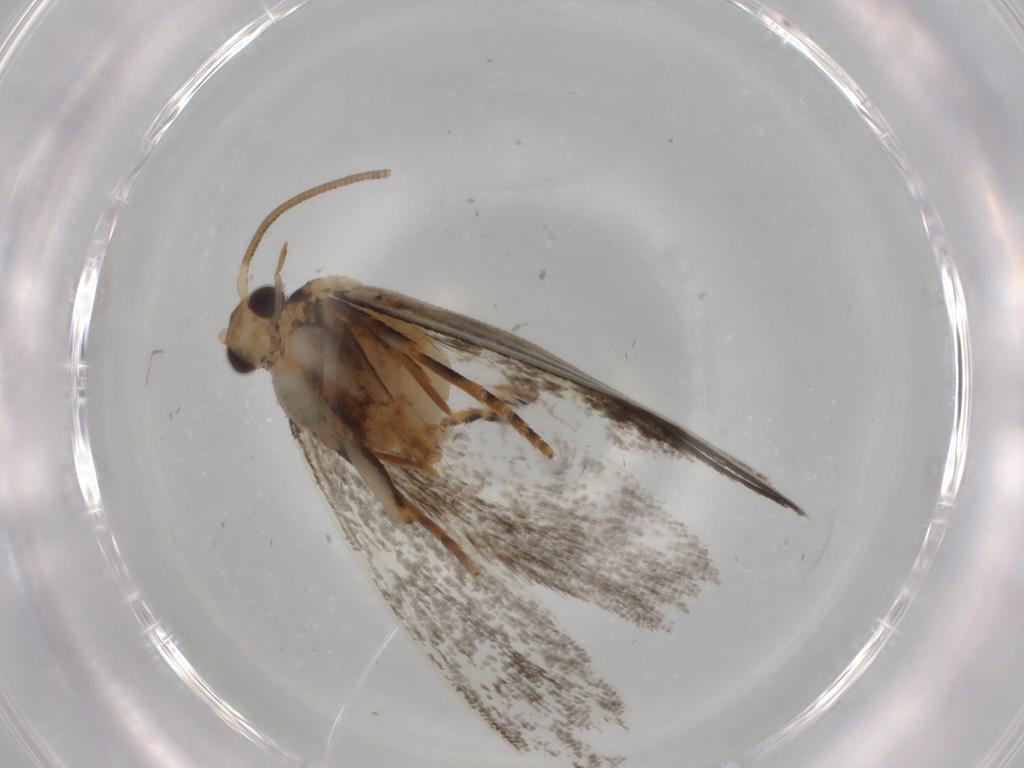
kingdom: Animalia
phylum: Arthropoda
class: Insecta
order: Lepidoptera
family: Tineidae
